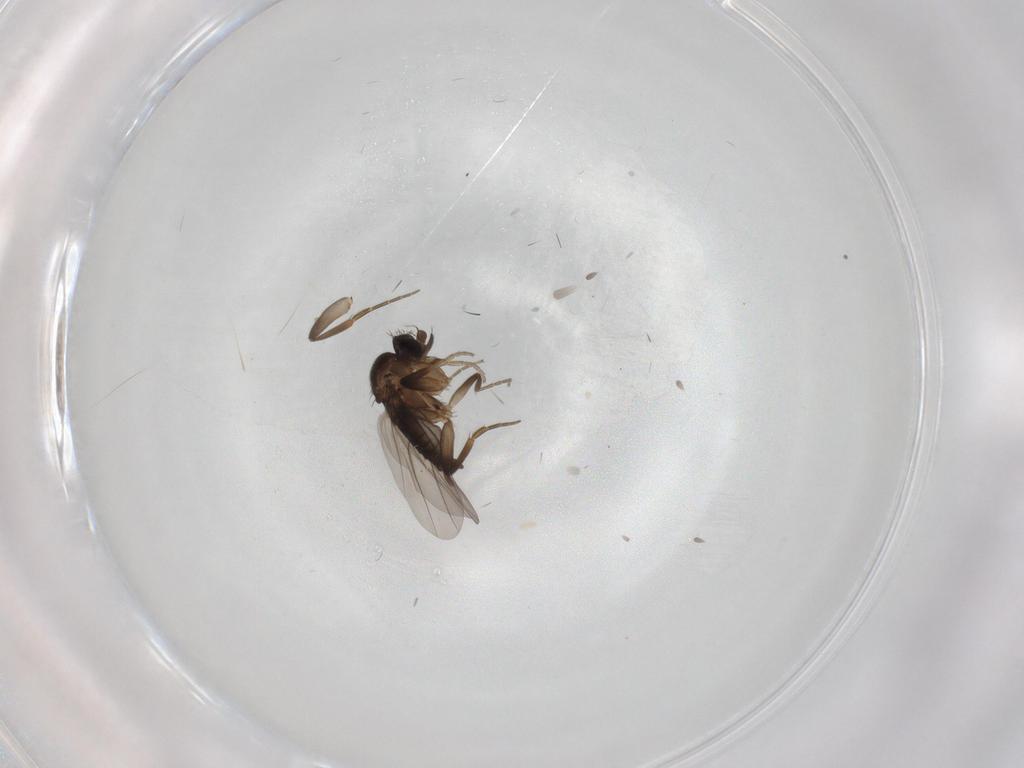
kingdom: Animalia
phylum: Arthropoda
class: Insecta
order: Diptera
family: Phoridae
